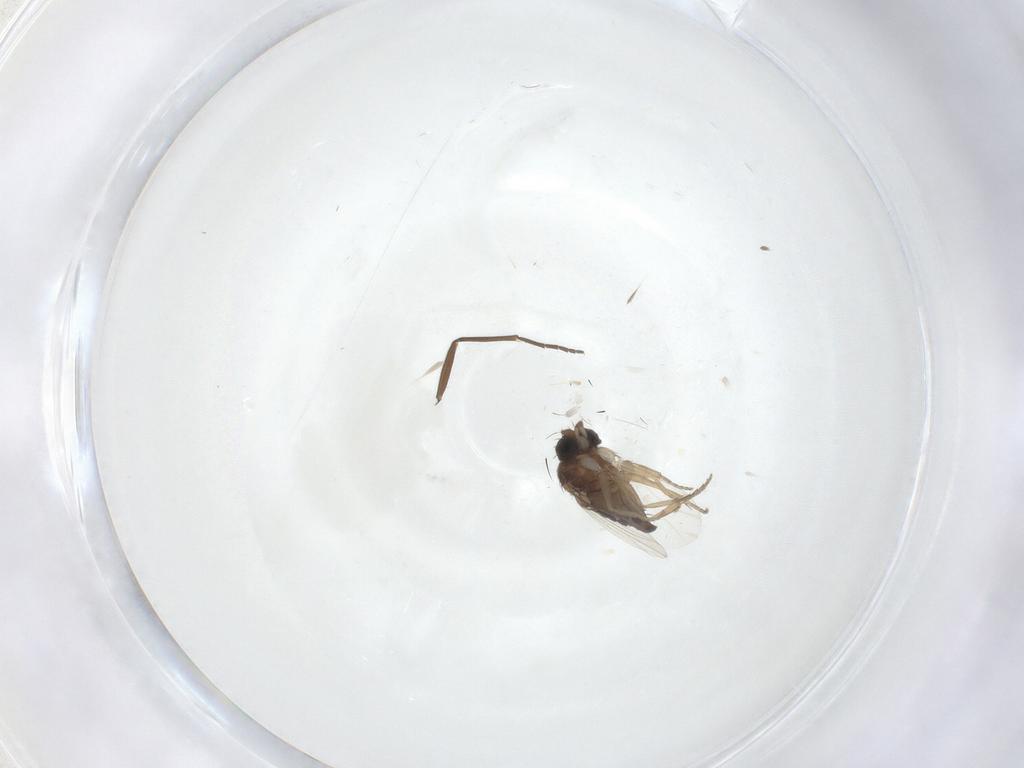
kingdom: Animalia
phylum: Arthropoda
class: Insecta
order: Diptera
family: Phoridae
